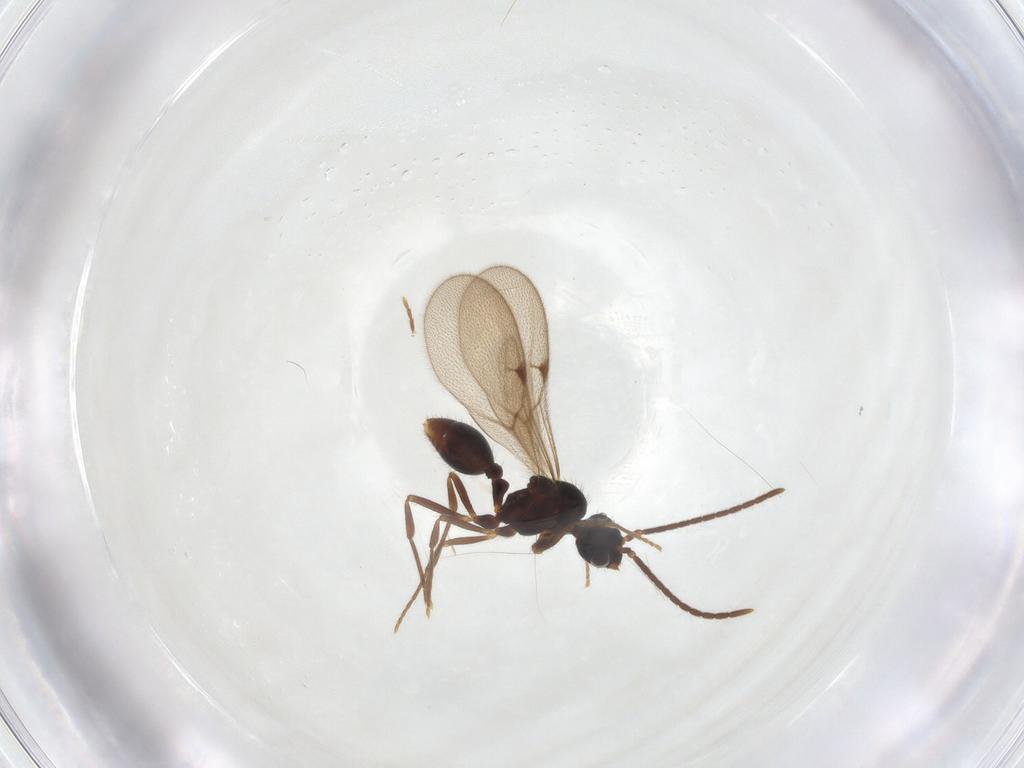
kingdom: Animalia
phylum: Arthropoda
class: Insecta
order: Hymenoptera
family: Formicidae
